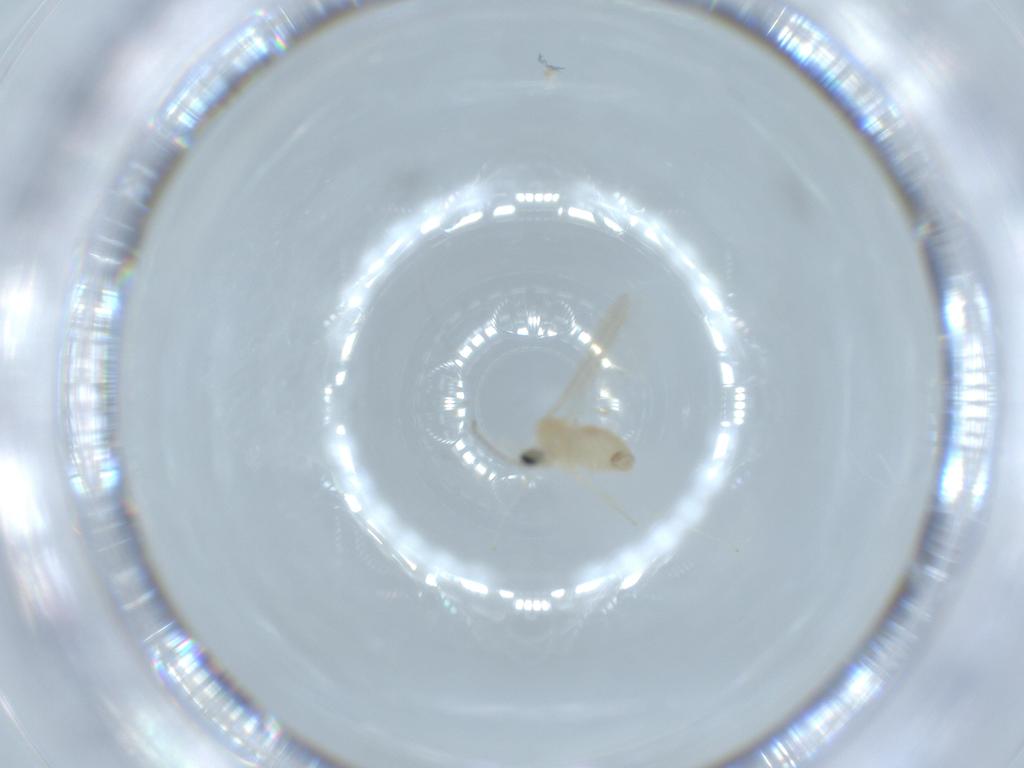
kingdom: Animalia
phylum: Arthropoda
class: Insecta
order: Diptera
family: Cecidomyiidae
